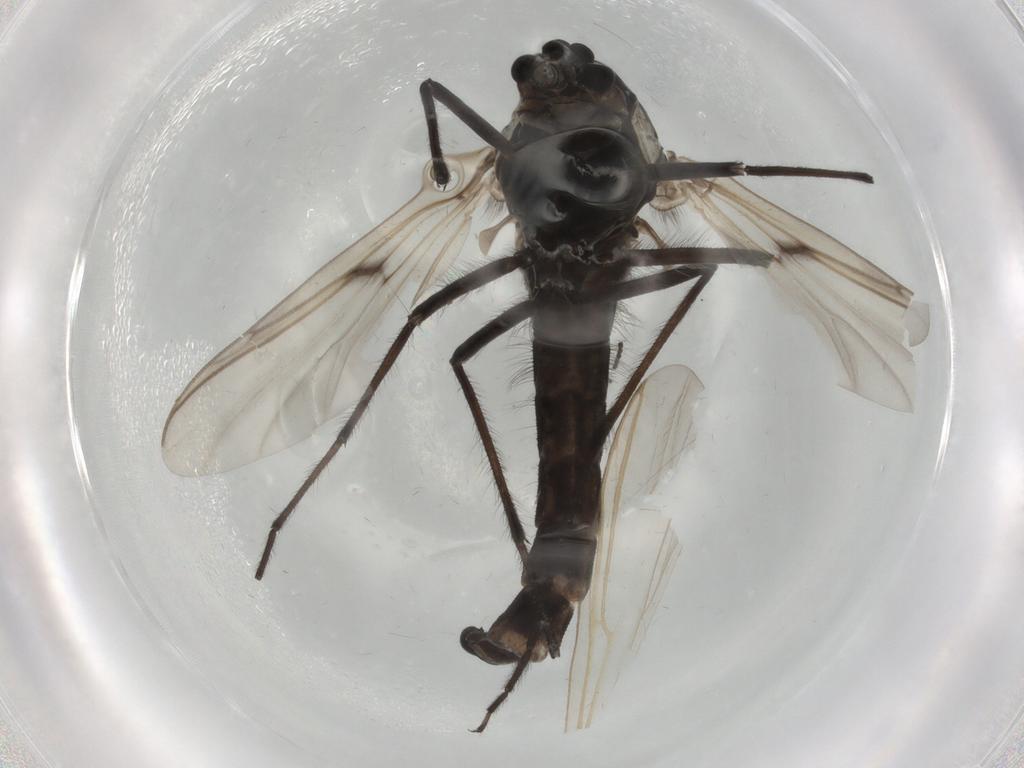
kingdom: Animalia
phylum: Arthropoda
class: Insecta
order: Diptera
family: Chironomidae
